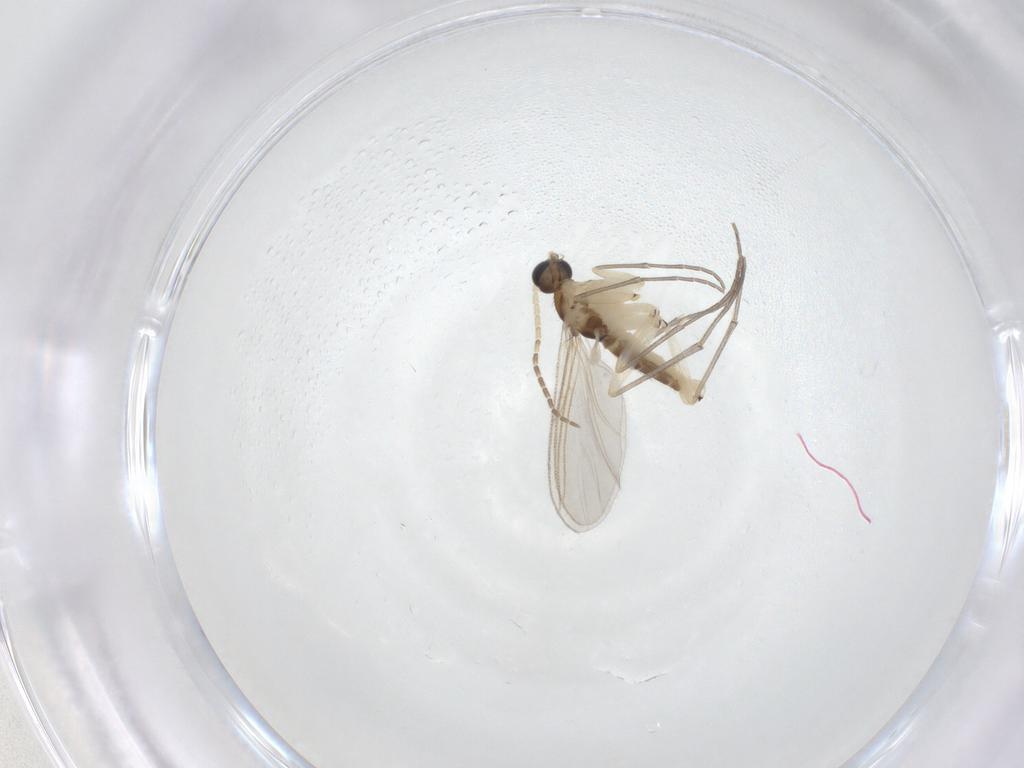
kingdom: Animalia
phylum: Arthropoda
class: Insecta
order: Diptera
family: Sciaridae
